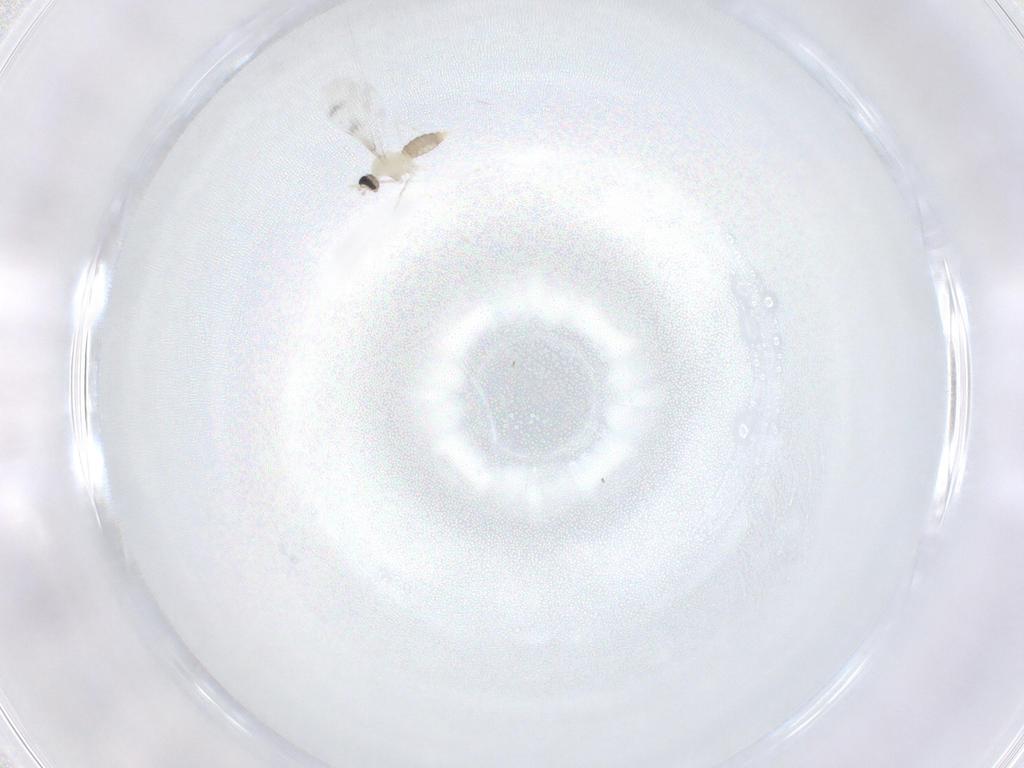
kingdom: Animalia
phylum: Arthropoda
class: Insecta
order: Diptera
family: Cecidomyiidae
